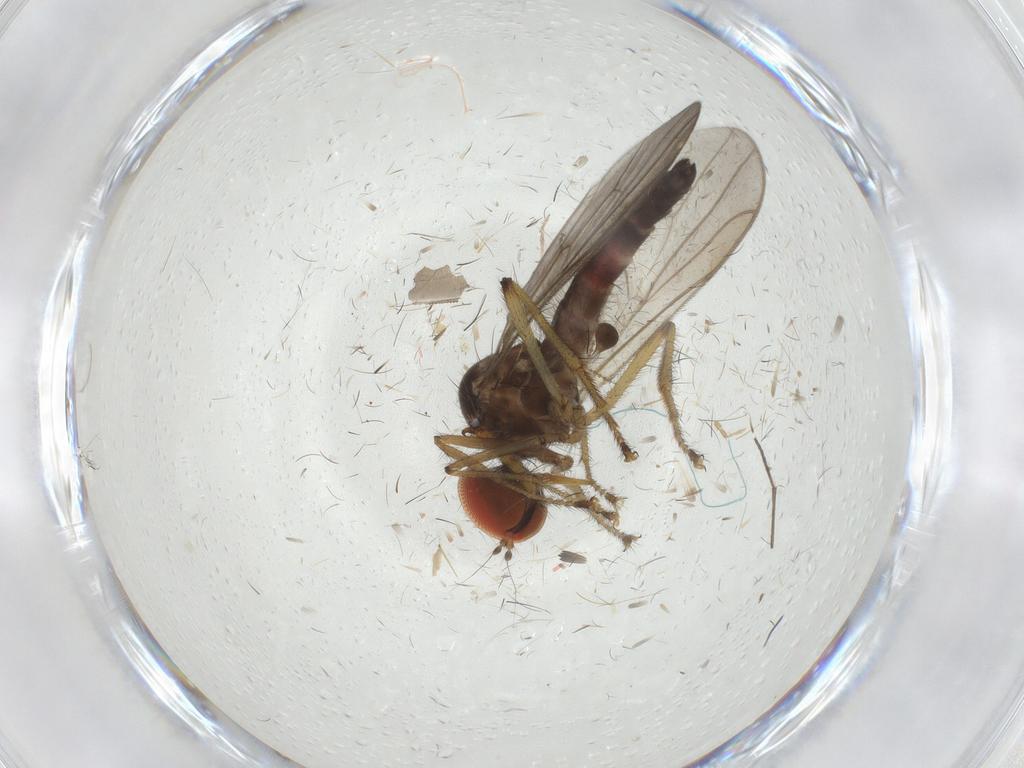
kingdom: Animalia
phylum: Arthropoda
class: Insecta
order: Diptera
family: Hybotidae
